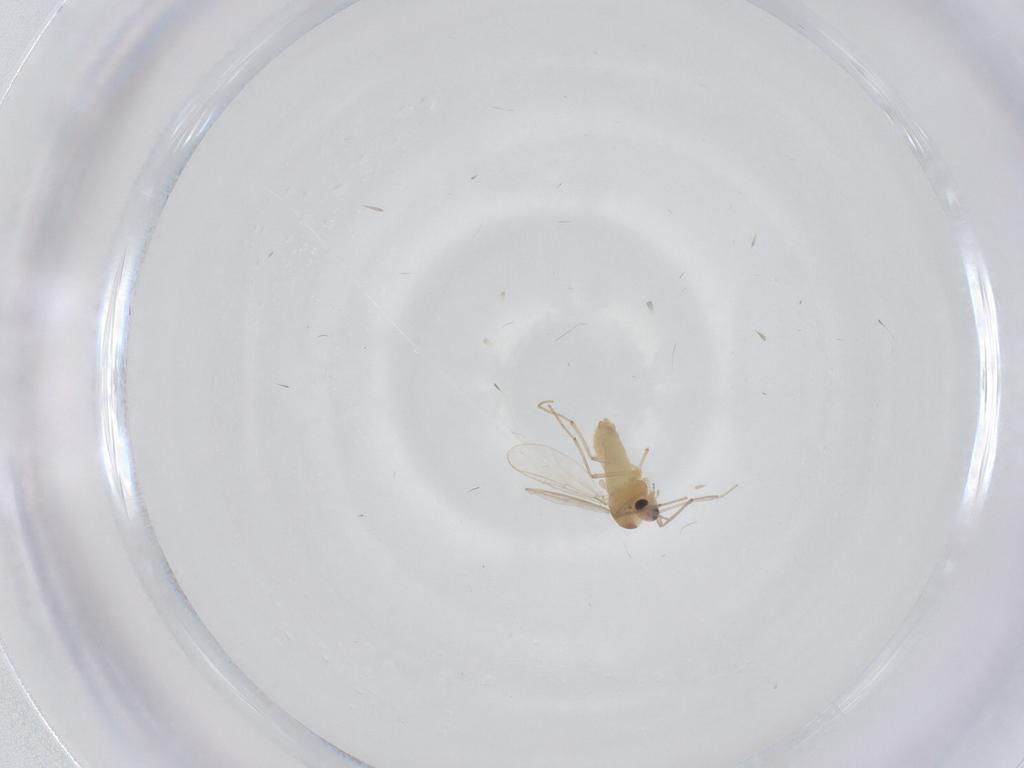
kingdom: Animalia
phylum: Arthropoda
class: Insecta
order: Diptera
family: Chironomidae
